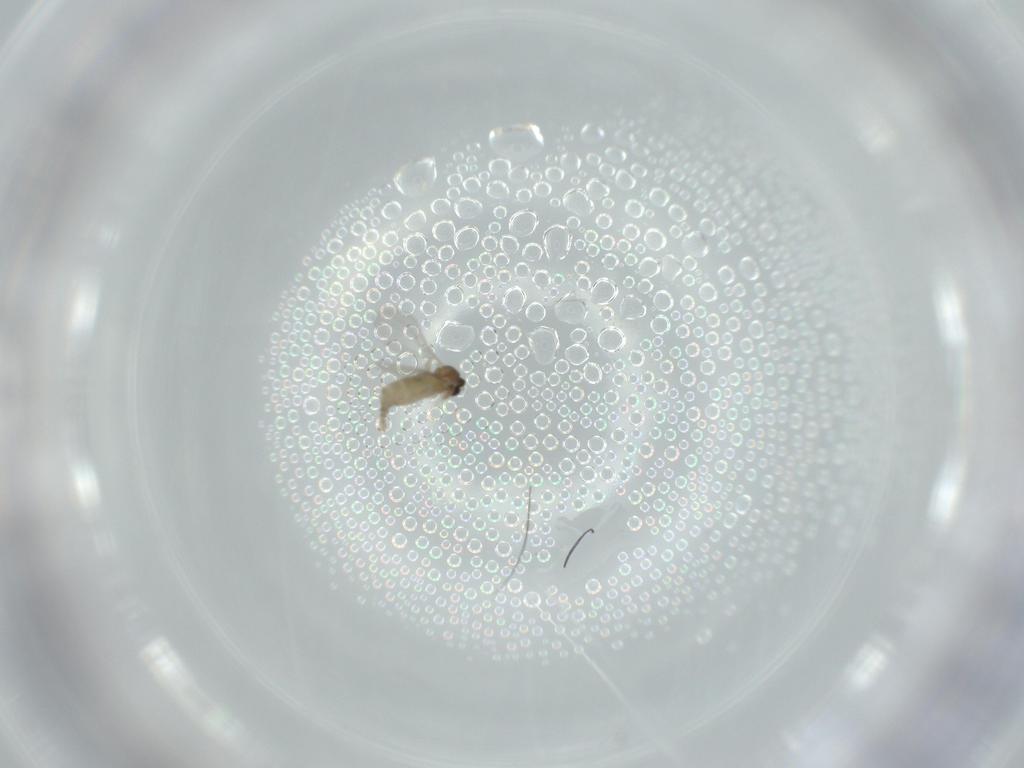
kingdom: Animalia
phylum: Arthropoda
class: Insecta
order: Diptera
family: Cecidomyiidae
